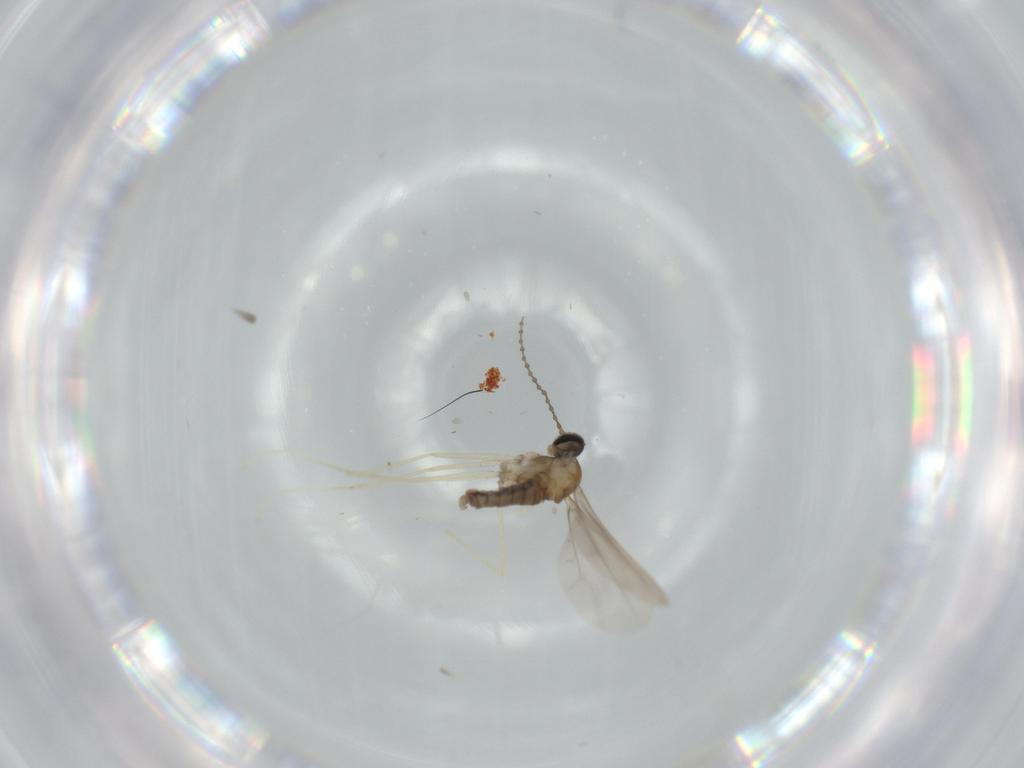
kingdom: Animalia
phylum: Arthropoda
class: Insecta
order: Diptera
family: Cecidomyiidae
